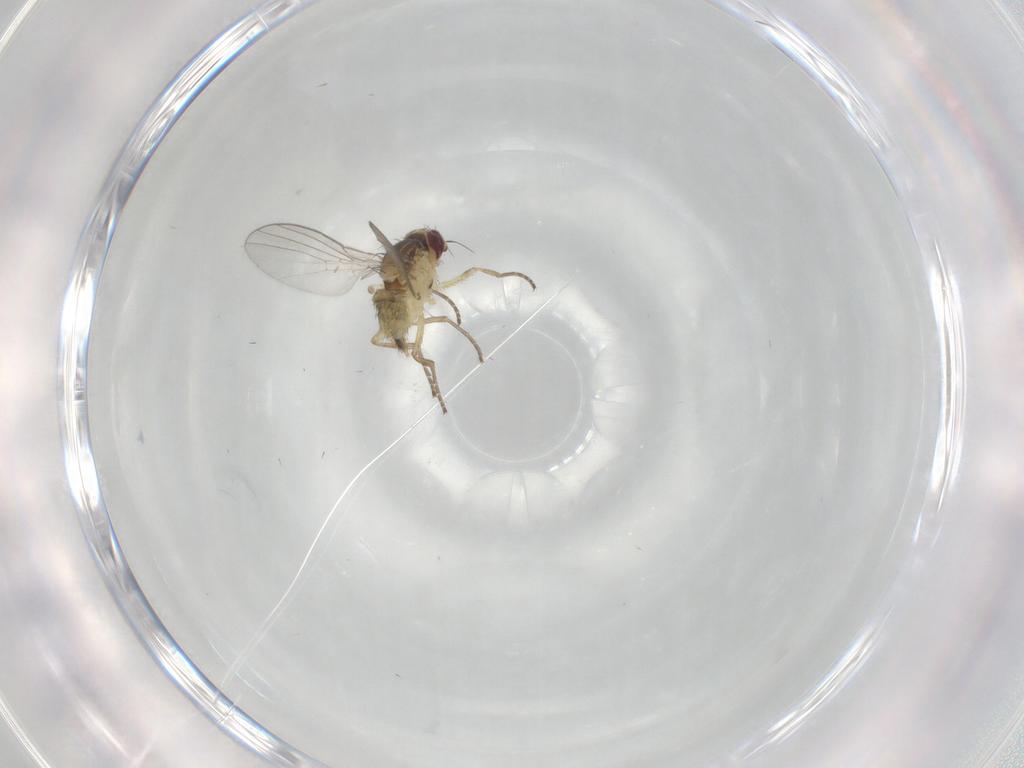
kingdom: Animalia
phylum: Arthropoda
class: Insecta
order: Diptera
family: Agromyzidae
